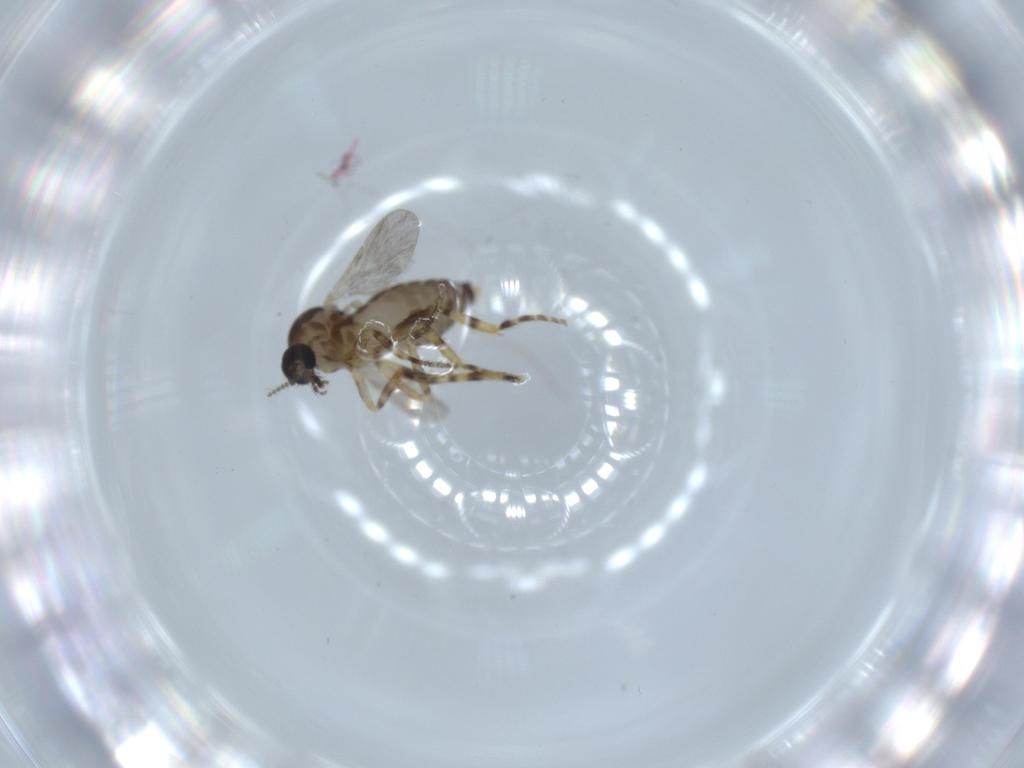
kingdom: Animalia
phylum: Arthropoda
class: Insecta
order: Diptera
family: Ceratopogonidae
